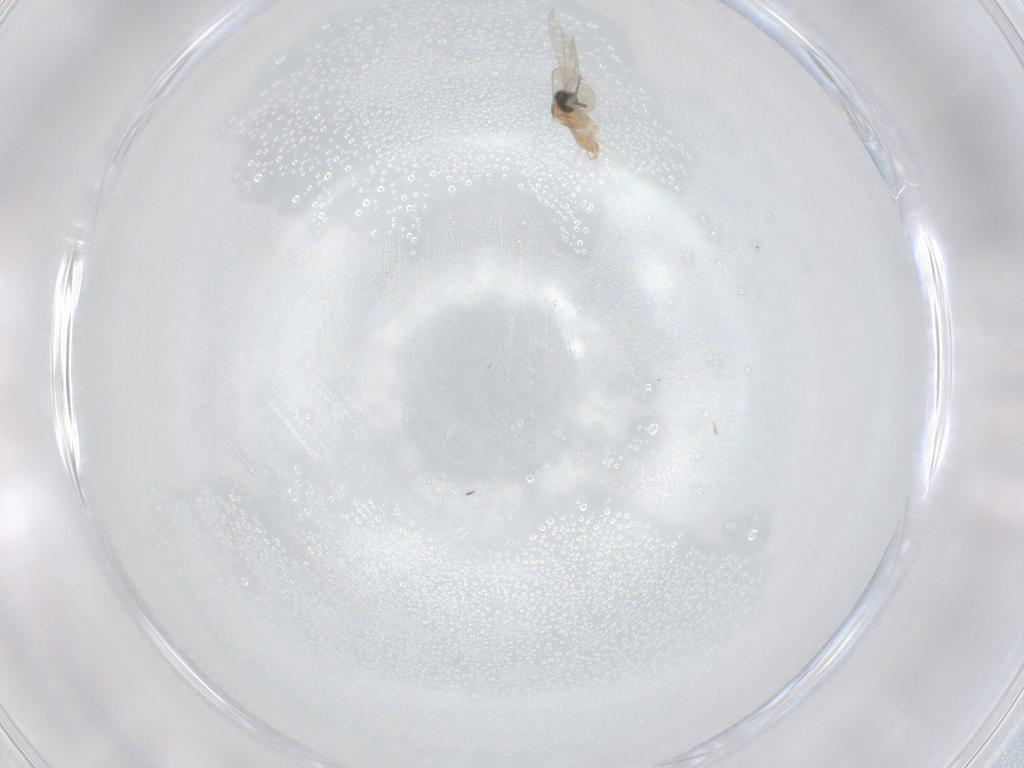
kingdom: Animalia
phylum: Arthropoda
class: Insecta
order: Diptera
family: Cecidomyiidae
